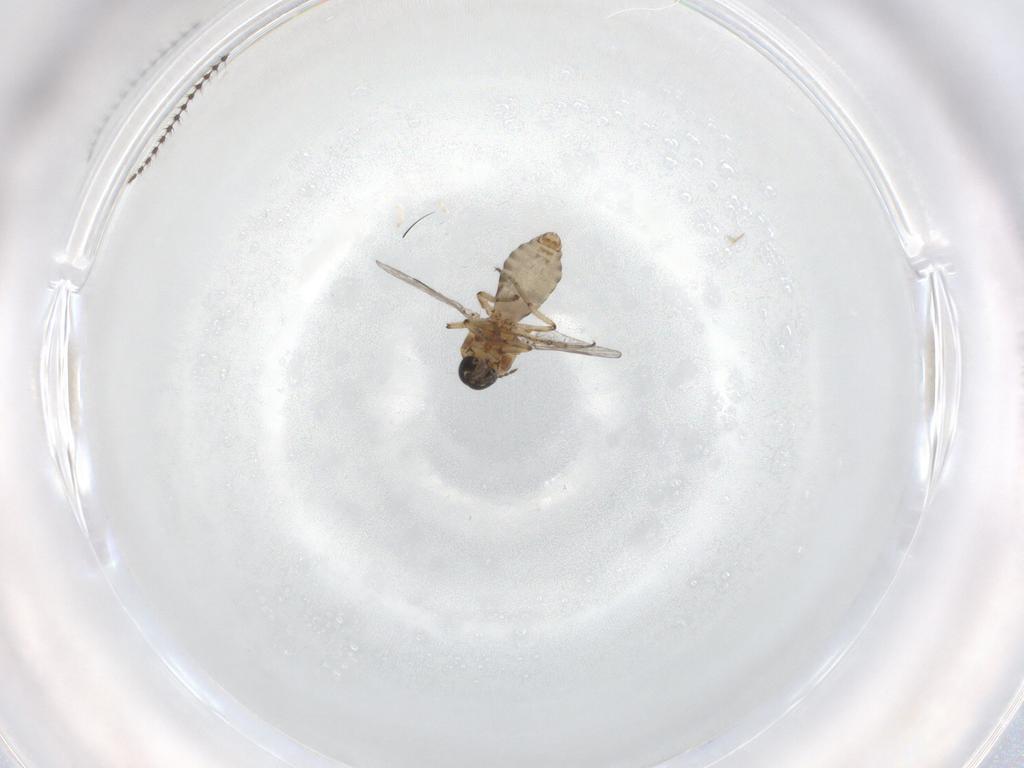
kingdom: Animalia
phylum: Arthropoda
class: Insecta
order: Diptera
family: Ceratopogonidae
